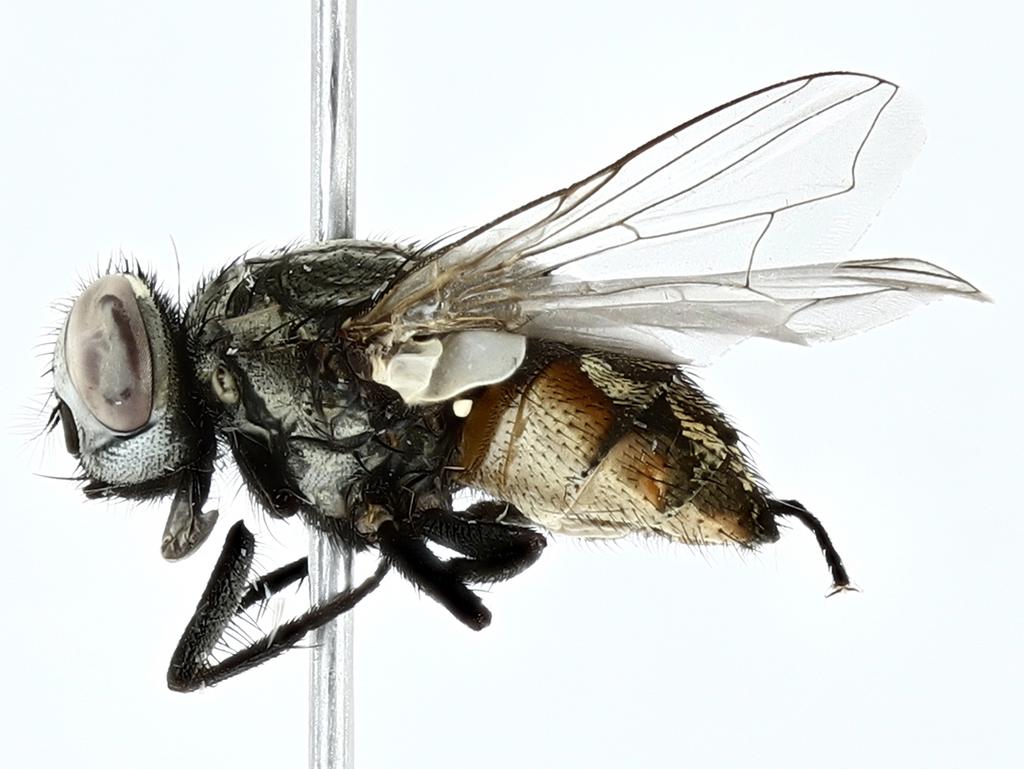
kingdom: Animalia
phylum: Arthropoda
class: Insecta
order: Diptera
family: Muscidae
